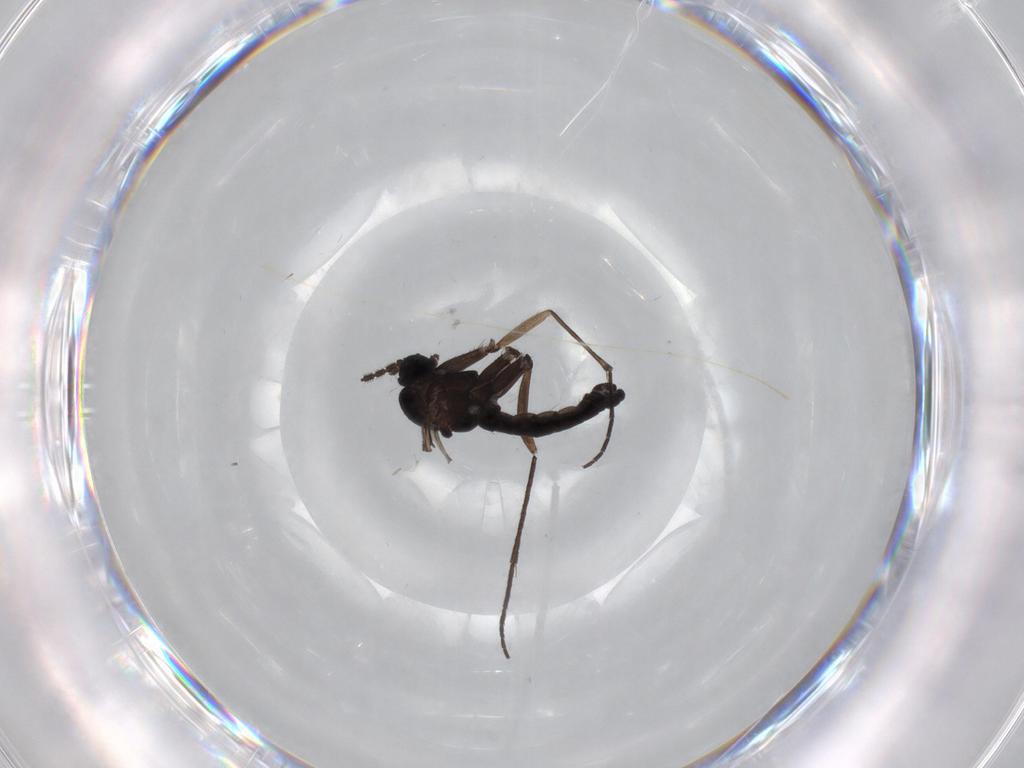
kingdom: Animalia
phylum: Arthropoda
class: Insecta
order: Diptera
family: Sciaridae
